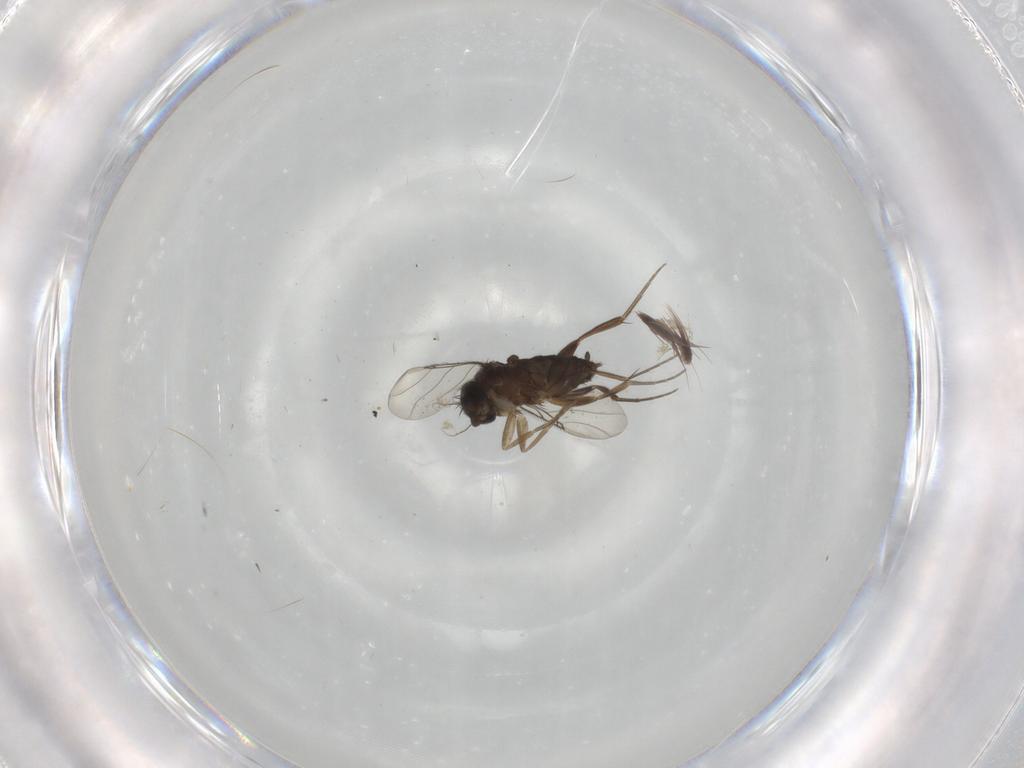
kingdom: Animalia
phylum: Arthropoda
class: Insecta
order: Diptera
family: Phoridae
